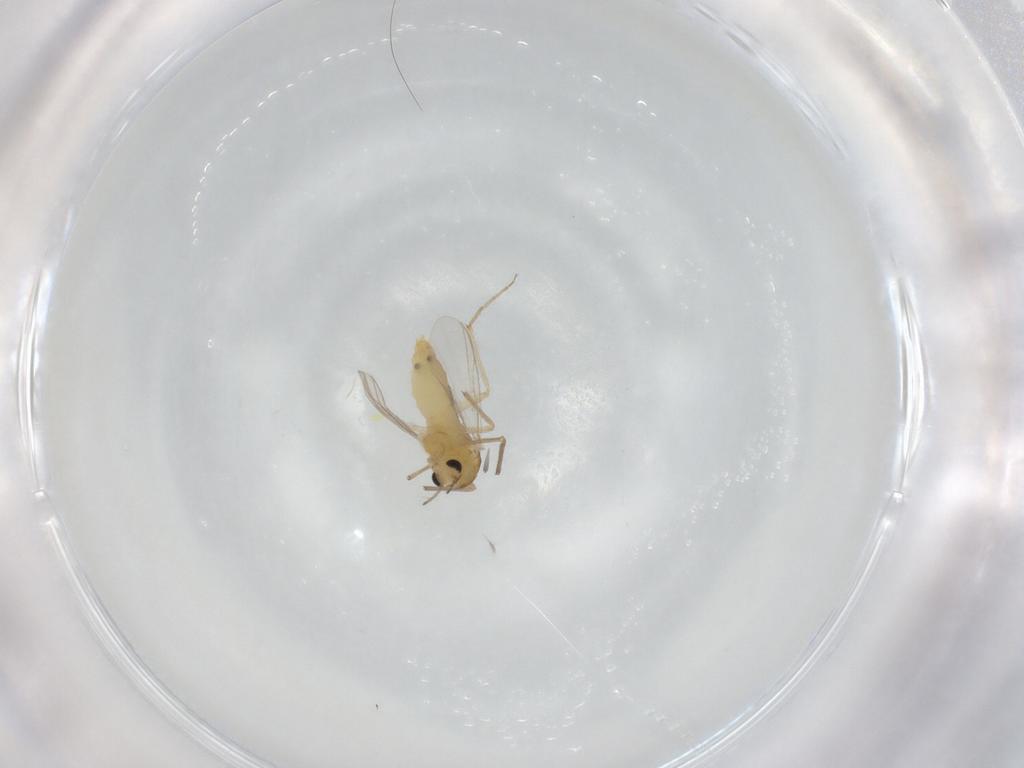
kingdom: Animalia
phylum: Arthropoda
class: Insecta
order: Diptera
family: Chironomidae
